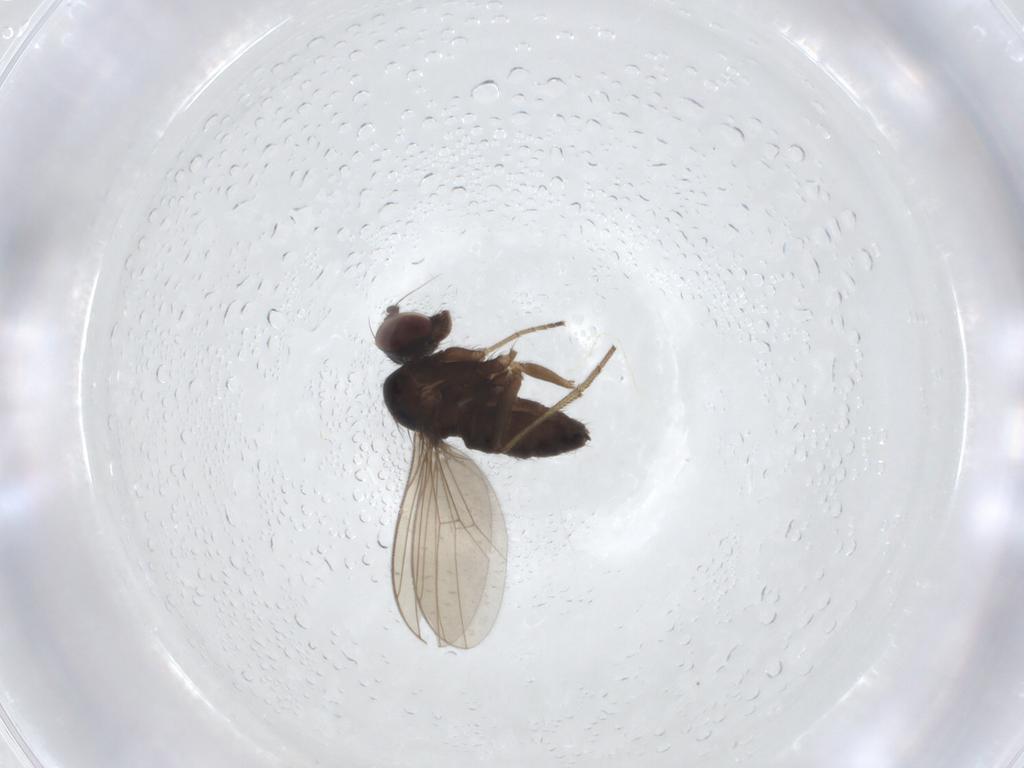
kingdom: Animalia
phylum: Arthropoda
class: Insecta
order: Diptera
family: Dolichopodidae
